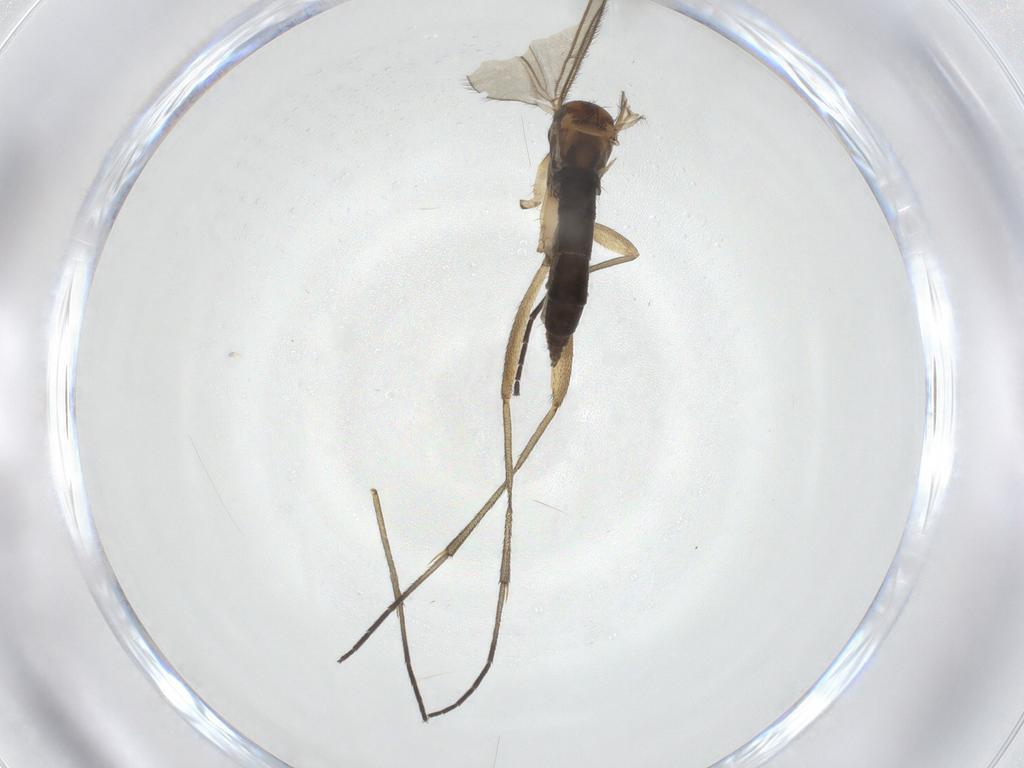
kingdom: Animalia
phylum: Arthropoda
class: Insecta
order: Diptera
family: Sciaridae
